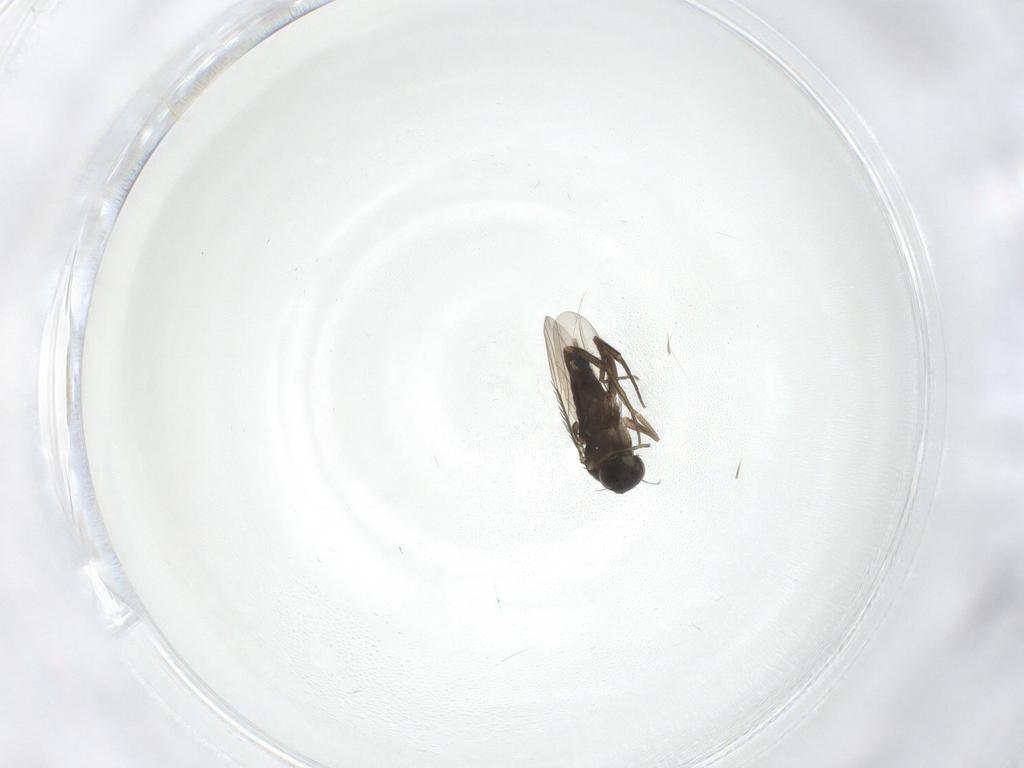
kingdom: Animalia
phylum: Arthropoda
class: Insecta
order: Diptera
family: Phoridae
